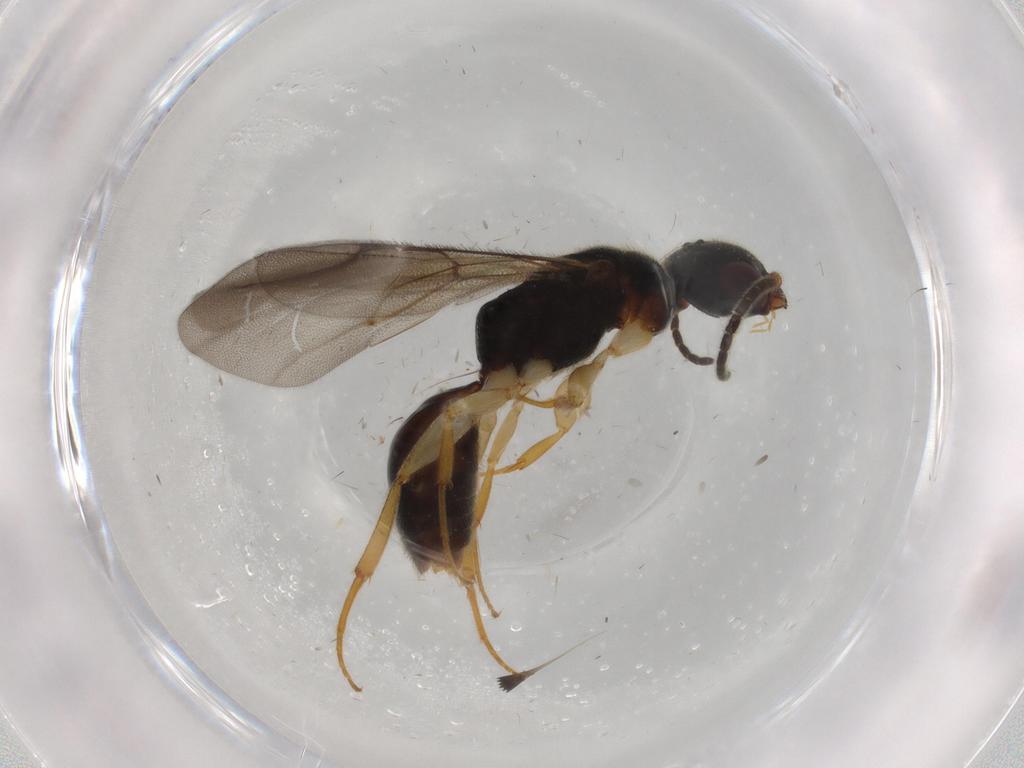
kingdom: Animalia
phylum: Arthropoda
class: Insecta
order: Hymenoptera
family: Bethylidae
